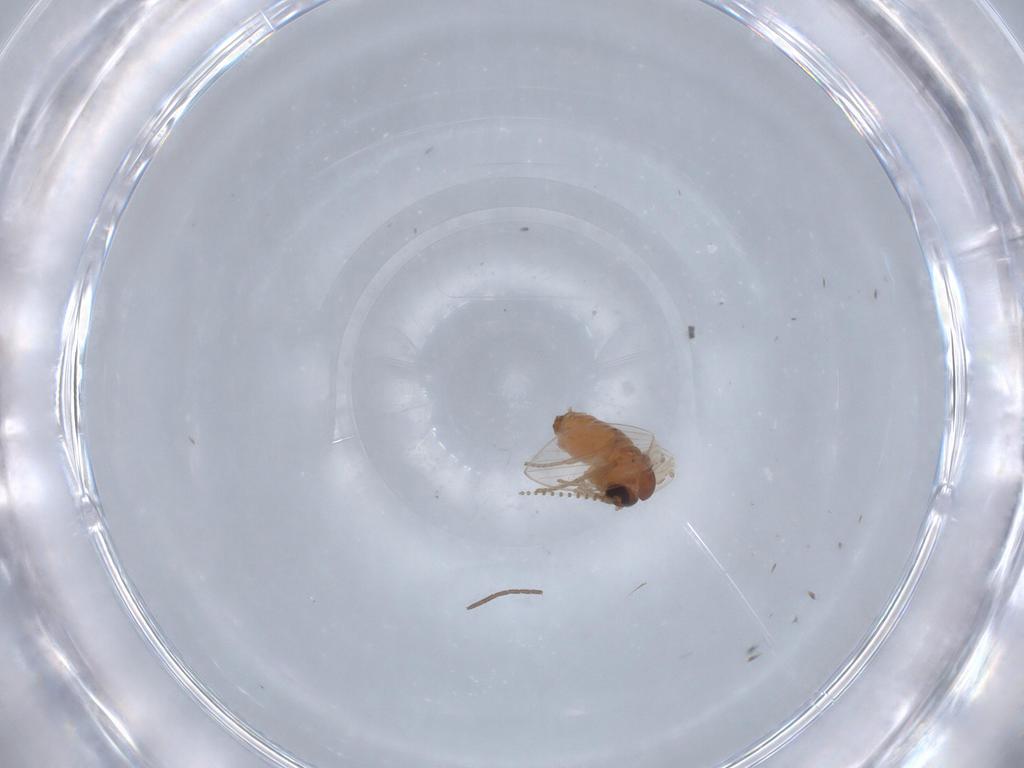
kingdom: Animalia
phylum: Arthropoda
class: Insecta
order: Diptera
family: Sciaridae
